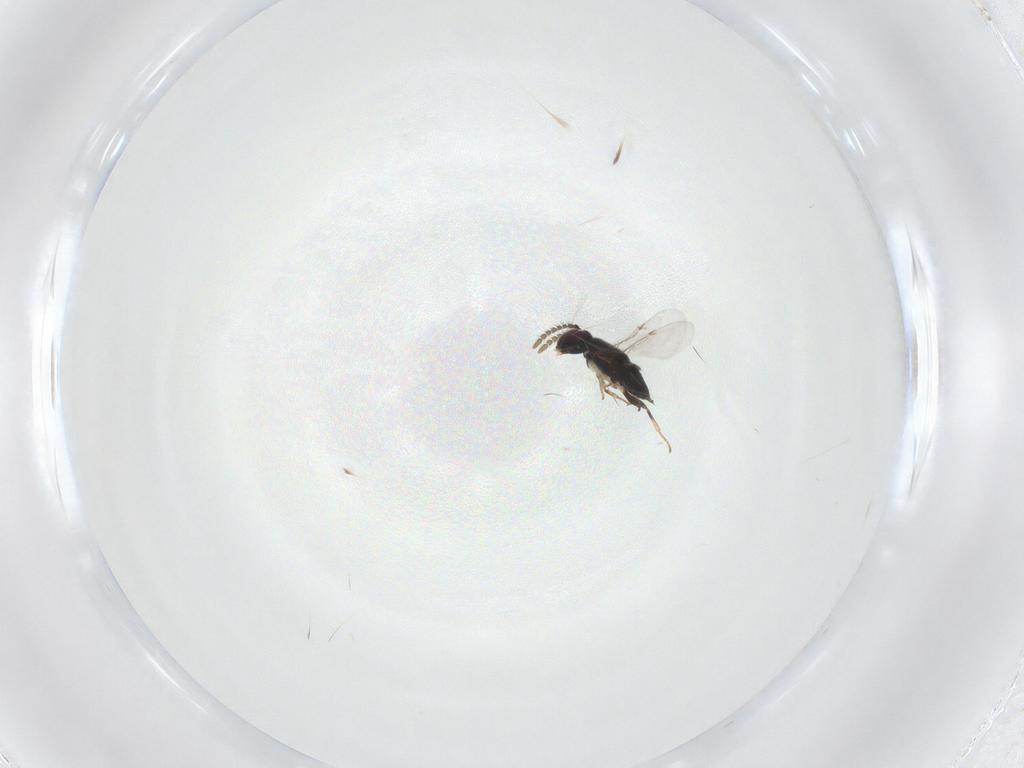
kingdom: Animalia
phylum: Arthropoda
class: Insecta
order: Hymenoptera
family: Encyrtidae
